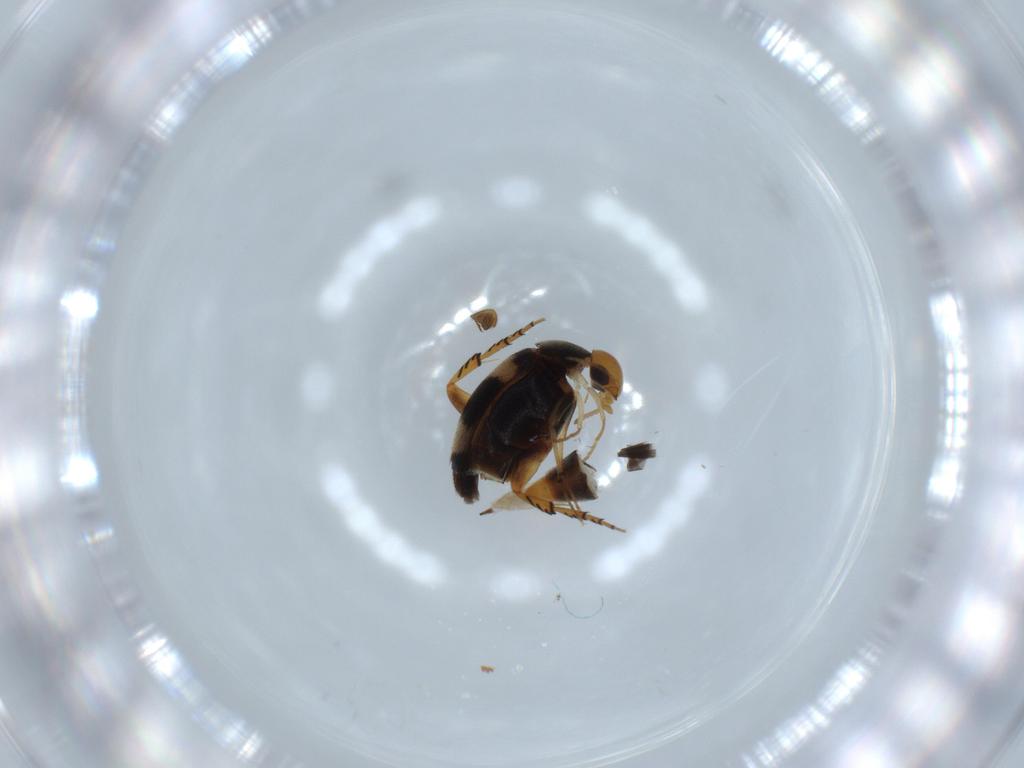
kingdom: Animalia
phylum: Arthropoda
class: Insecta
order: Coleoptera
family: Mordellidae
